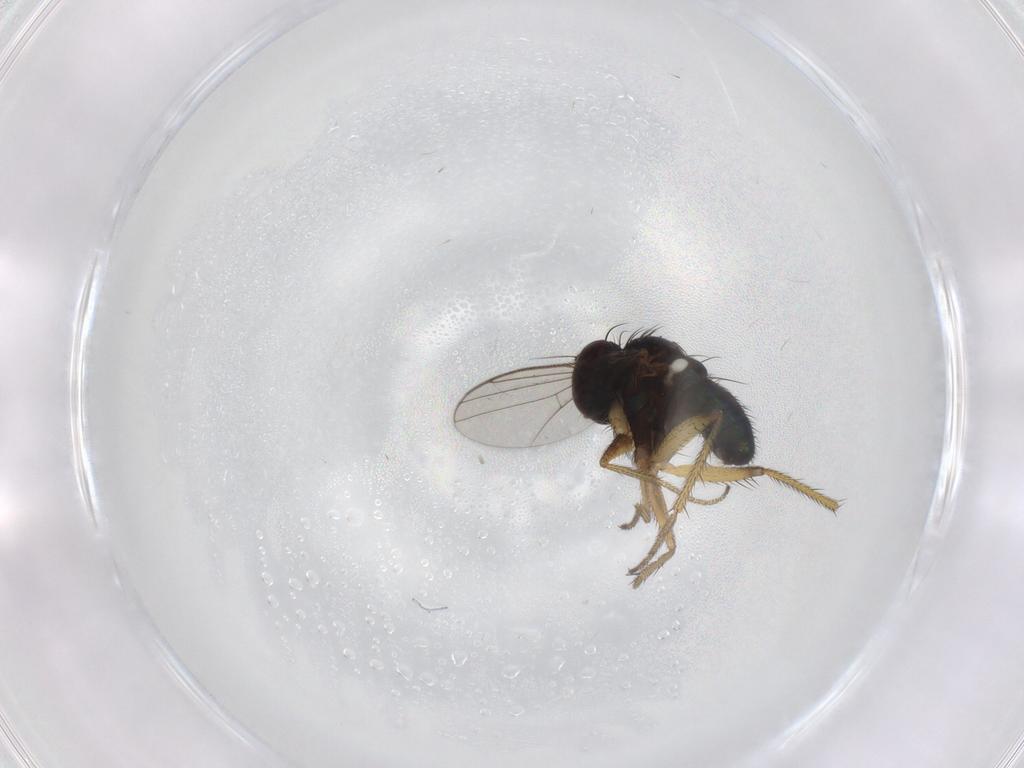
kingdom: Animalia
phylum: Arthropoda
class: Insecta
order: Diptera
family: Dolichopodidae
